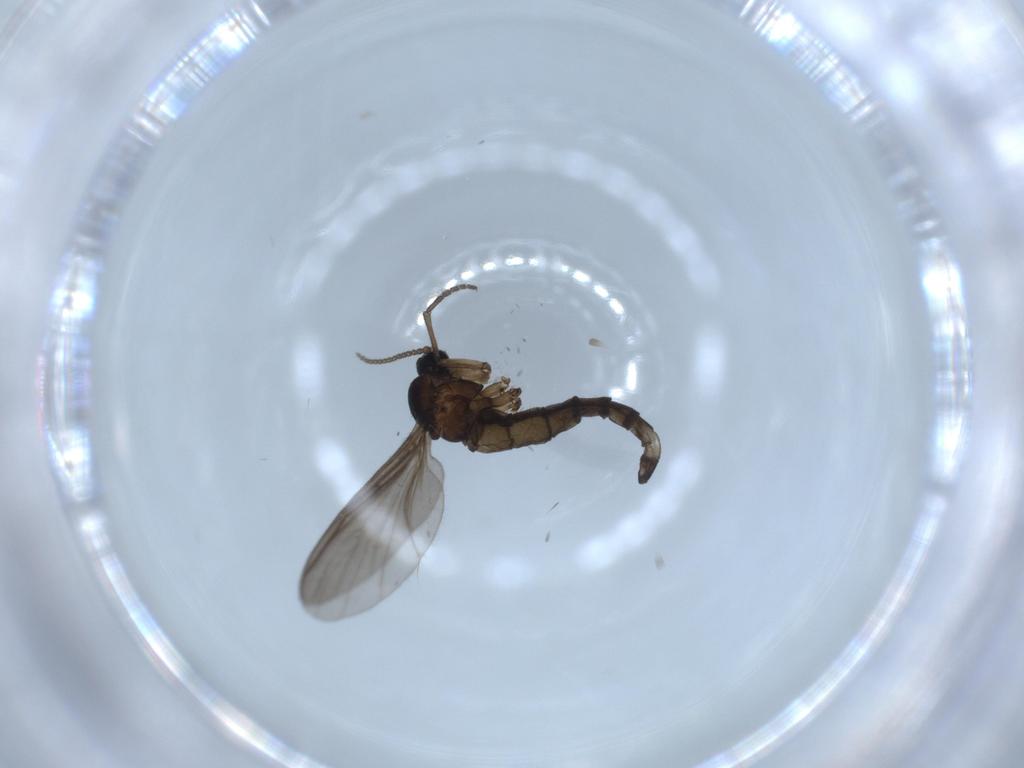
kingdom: Animalia
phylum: Arthropoda
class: Insecta
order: Diptera
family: Sciaridae
